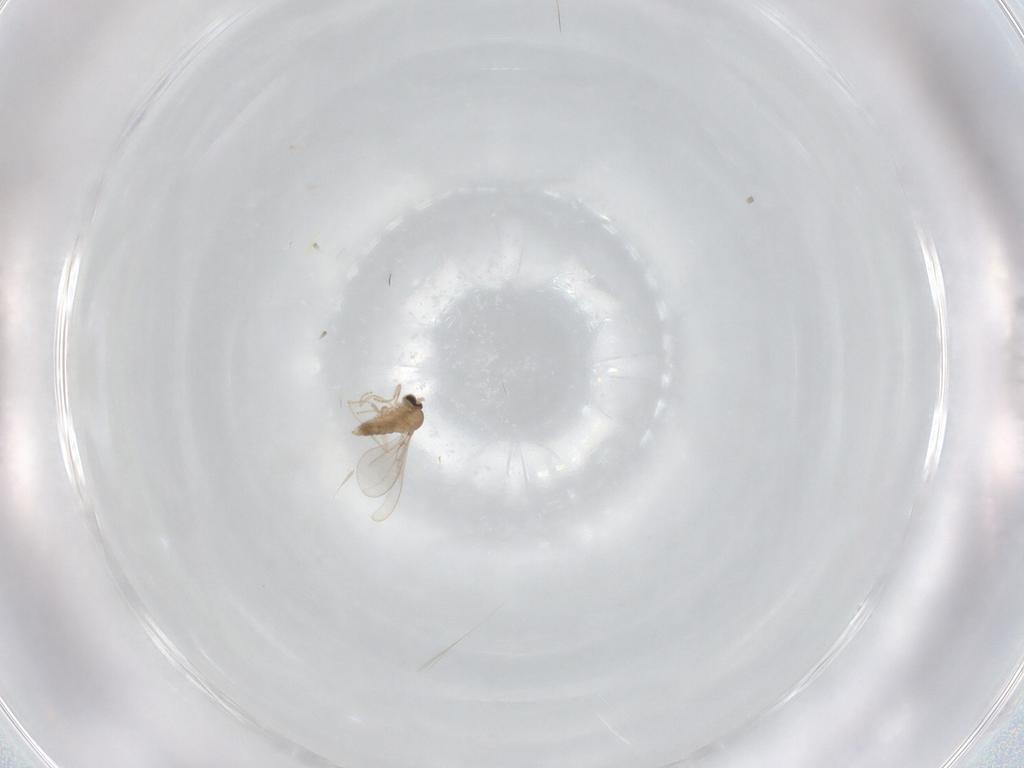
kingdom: Animalia
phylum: Arthropoda
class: Insecta
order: Diptera
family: Cecidomyiidae
